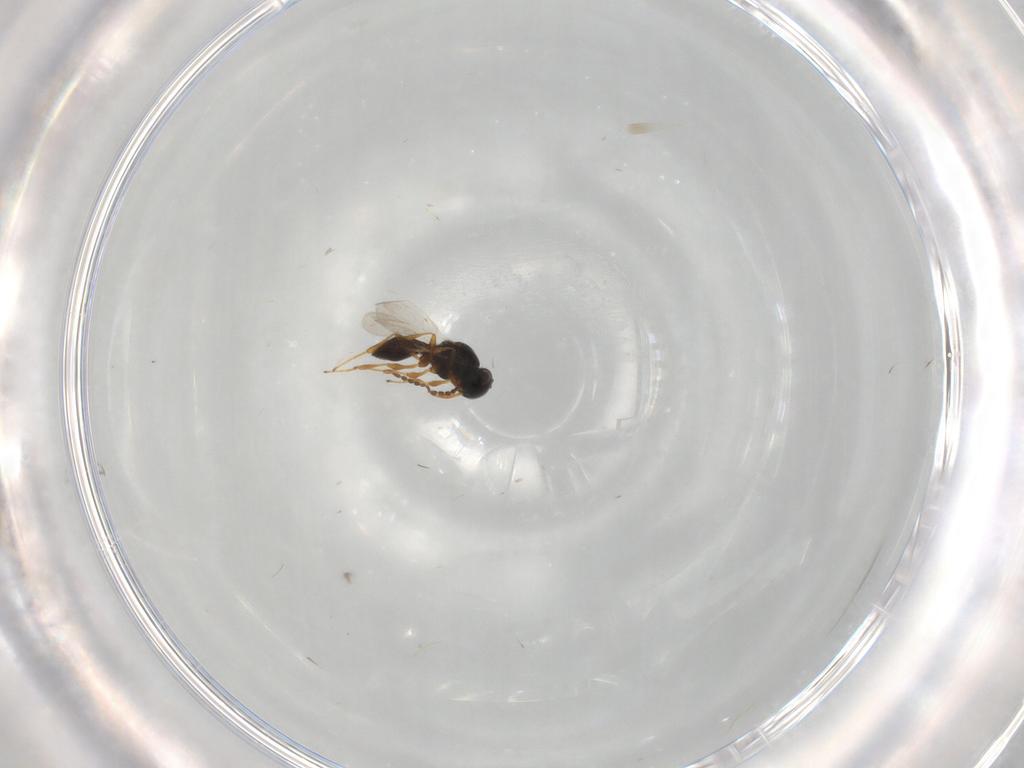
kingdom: Animalia
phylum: Arthropoda
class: Insecta
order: Hymenoptera
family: Platygastridae
